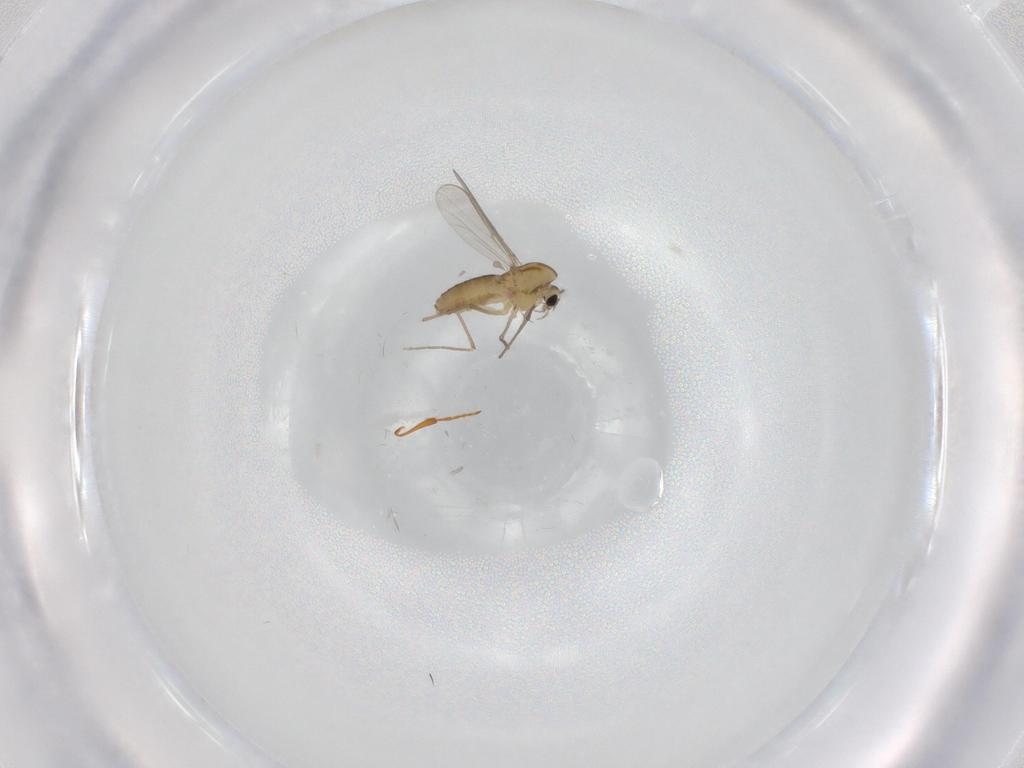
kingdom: Animalia
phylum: Arthropoda
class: Insecta
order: Diptera
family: Chironomidae
